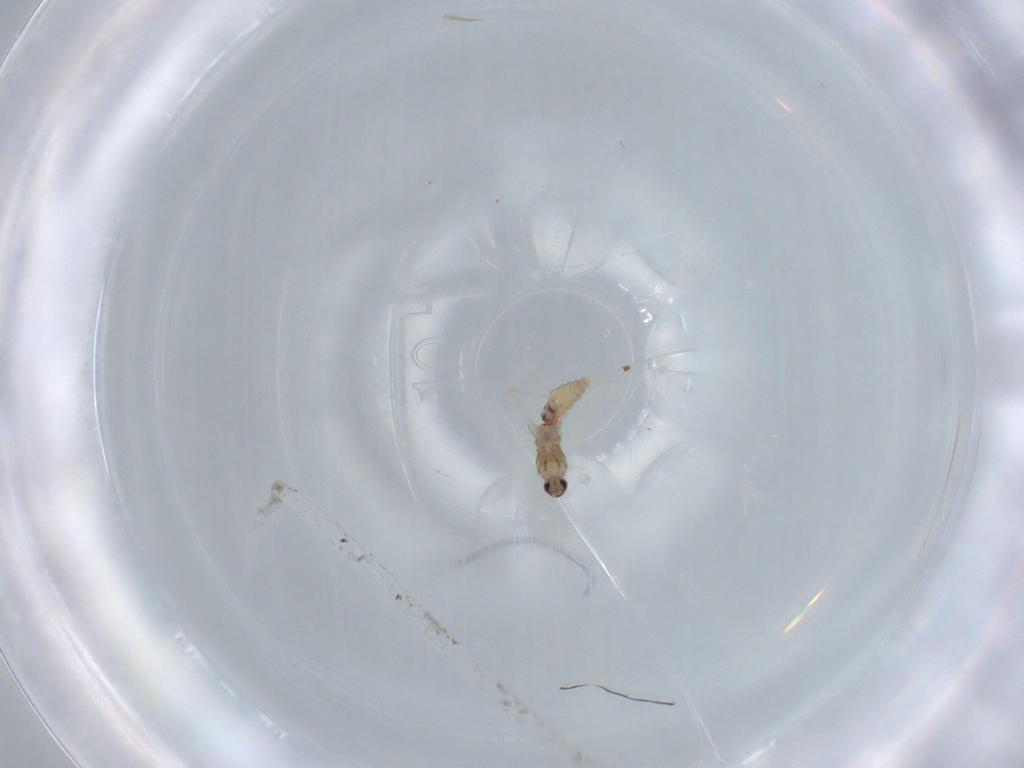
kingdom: Animalia
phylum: Arthropoda
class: Insecta
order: Diptera
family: Cecidomyiidae
